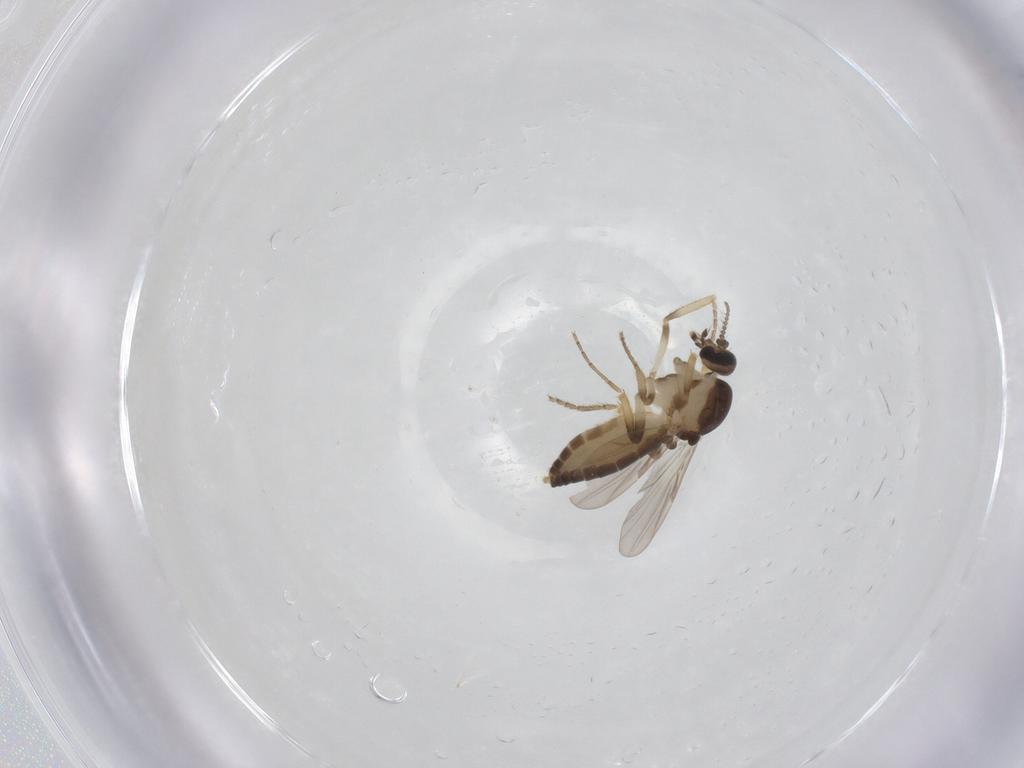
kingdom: Animalia
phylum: Arthropoda
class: Insecta
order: Diptera
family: Ceratopogonidae
